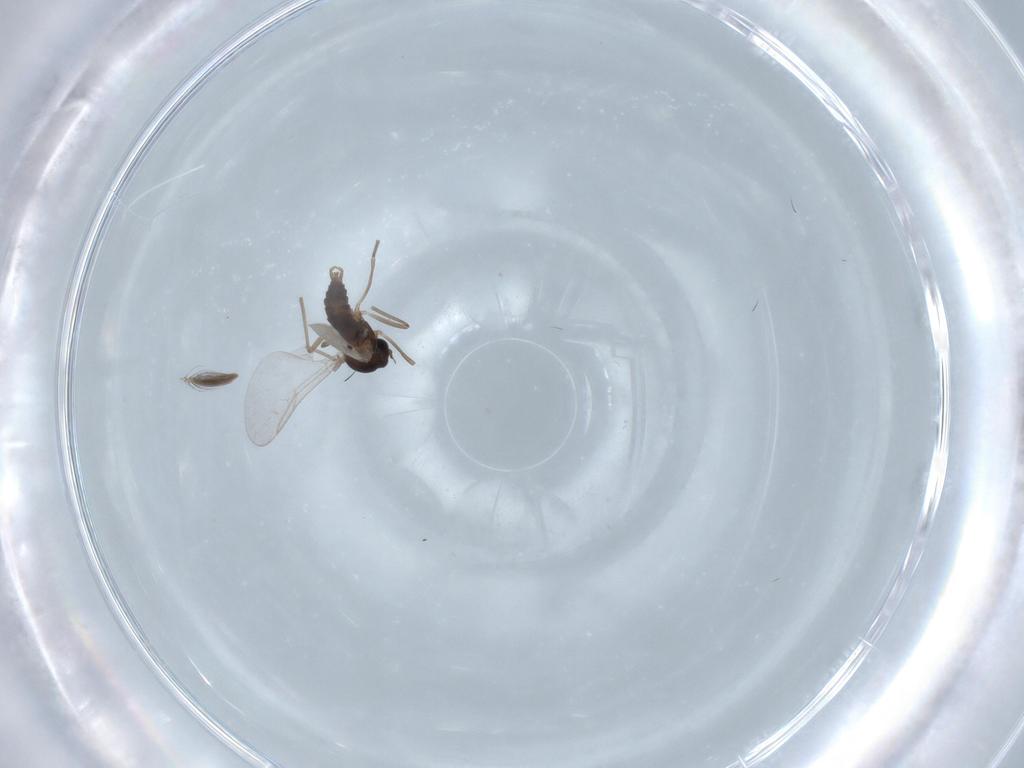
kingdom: Animalia
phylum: Arthropoda
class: Insecta
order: Diptera
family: Cecidomyiidae
